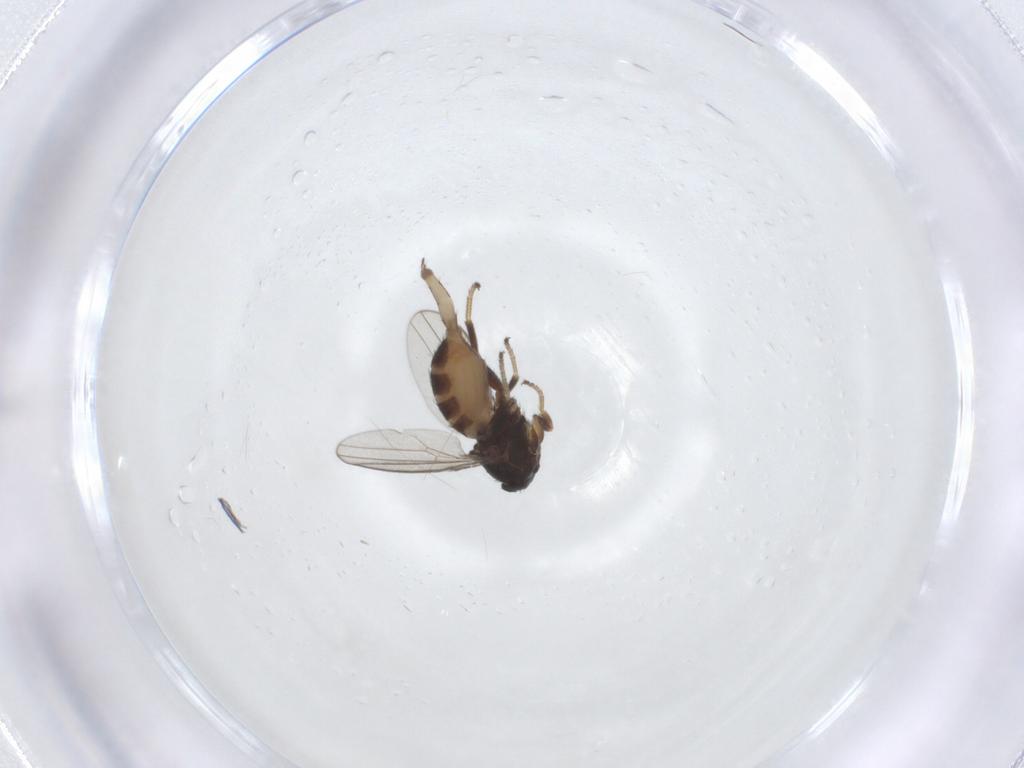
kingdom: Animalia
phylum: Arthropoda
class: Insecta
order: Diptera
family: Milichiidae
